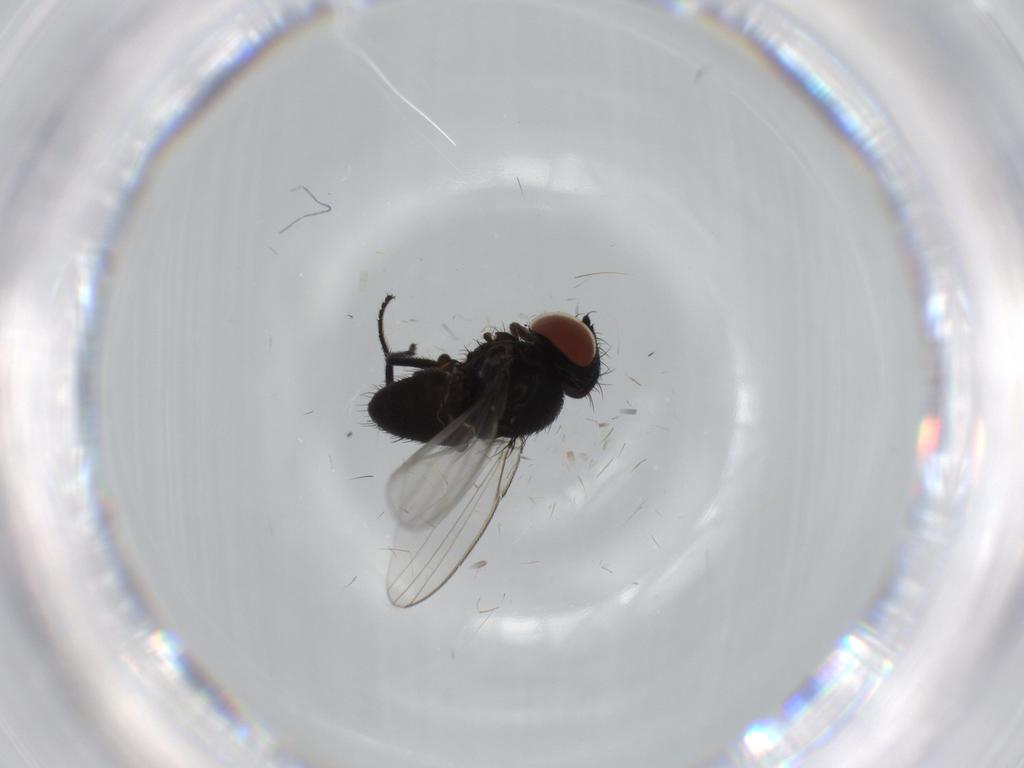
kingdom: Animalia
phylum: Arthropoda
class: Insecta
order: Diptera
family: Milichiidae
